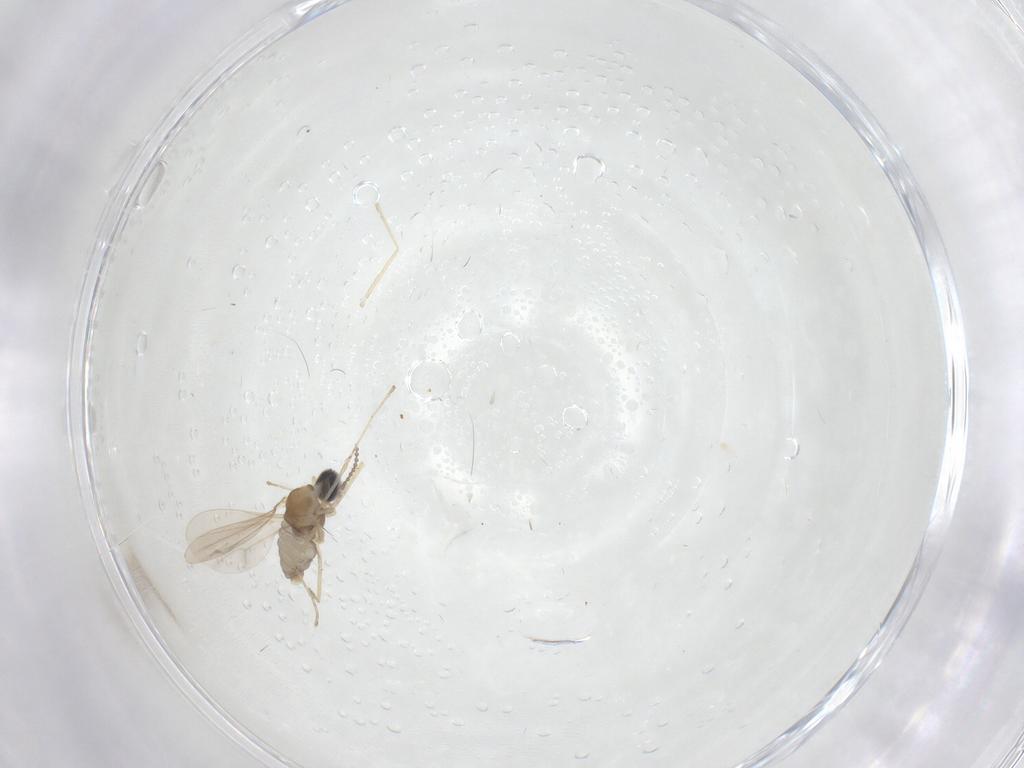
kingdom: Animalia
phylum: Arthropoda
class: Insecta
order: Diptera
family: Cecidomyiidae
